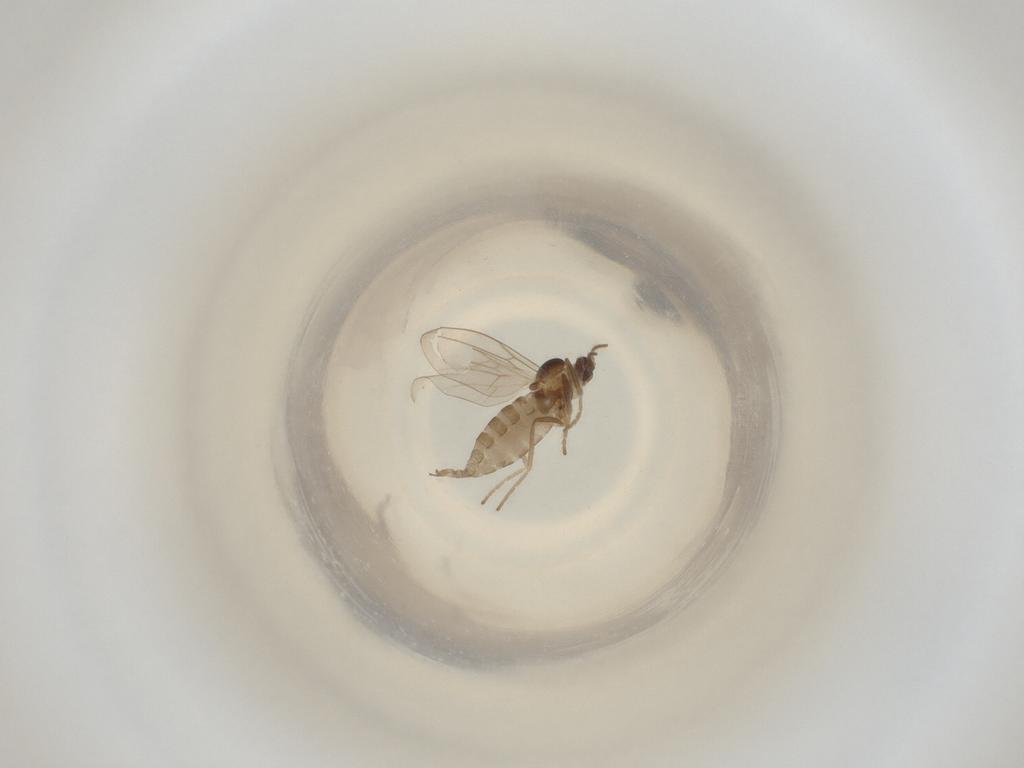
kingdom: Animalia
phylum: Arthropoda
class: Insecta
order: Diptera
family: Cecidomyiidae
